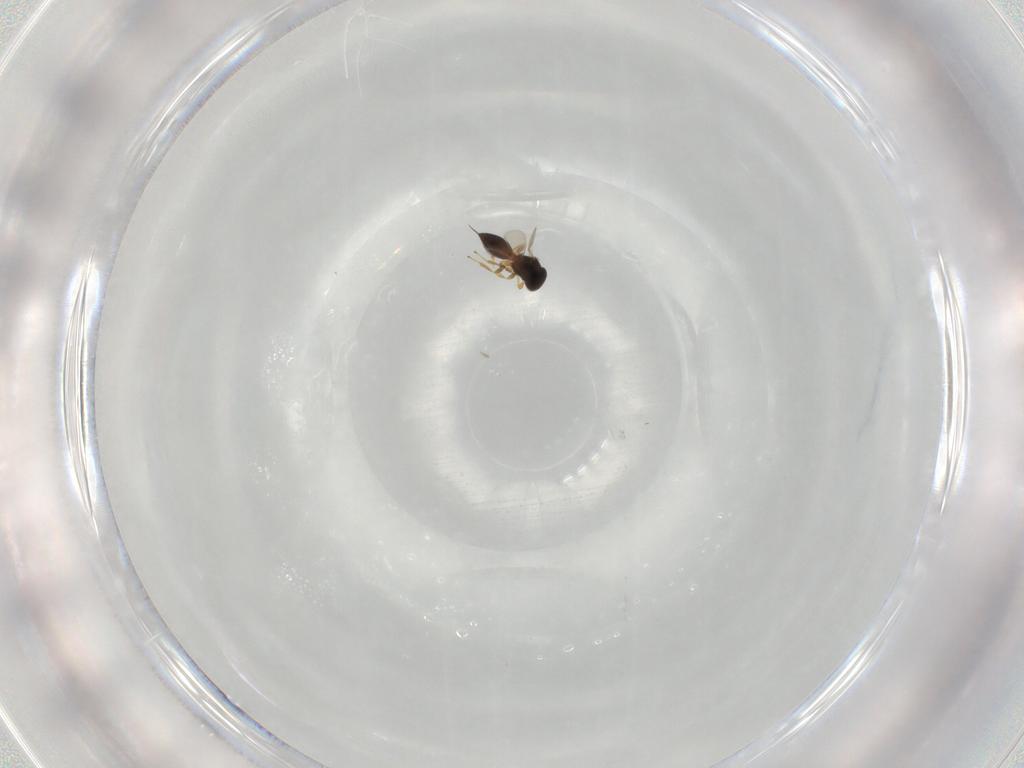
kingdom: Animalia
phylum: Arthropoda
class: Insecta
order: Hymenoptera
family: Platygastridae
